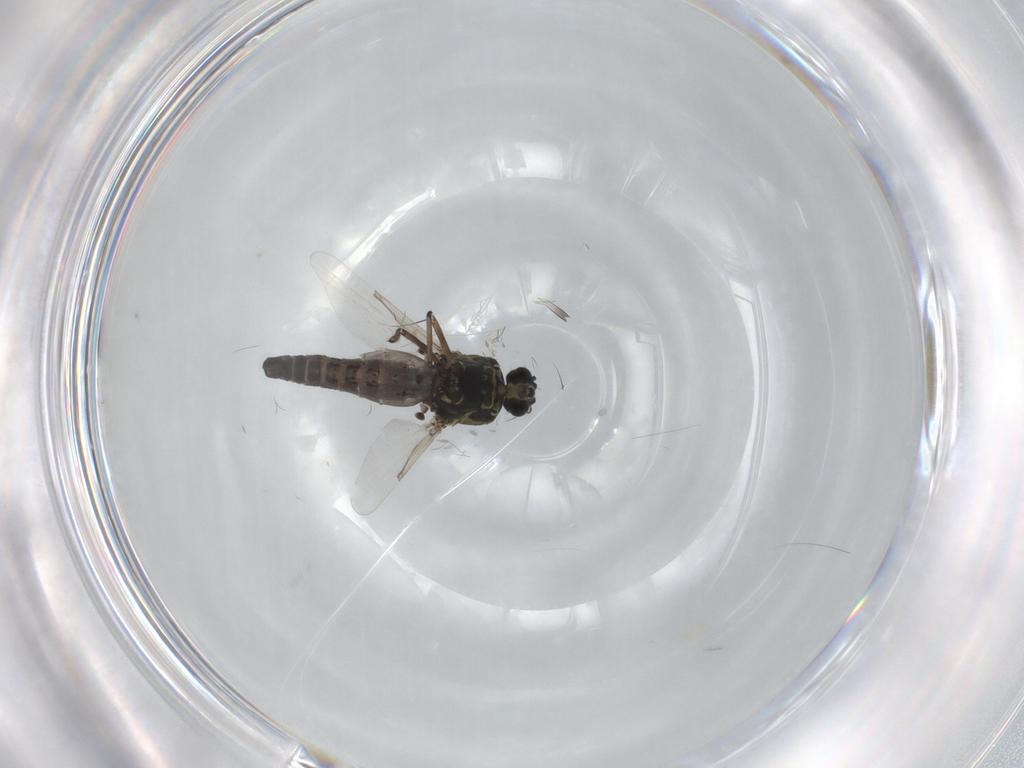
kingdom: Animalia
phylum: Arthropoda
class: Insecta
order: Diptera
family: Ceratopogonidae
